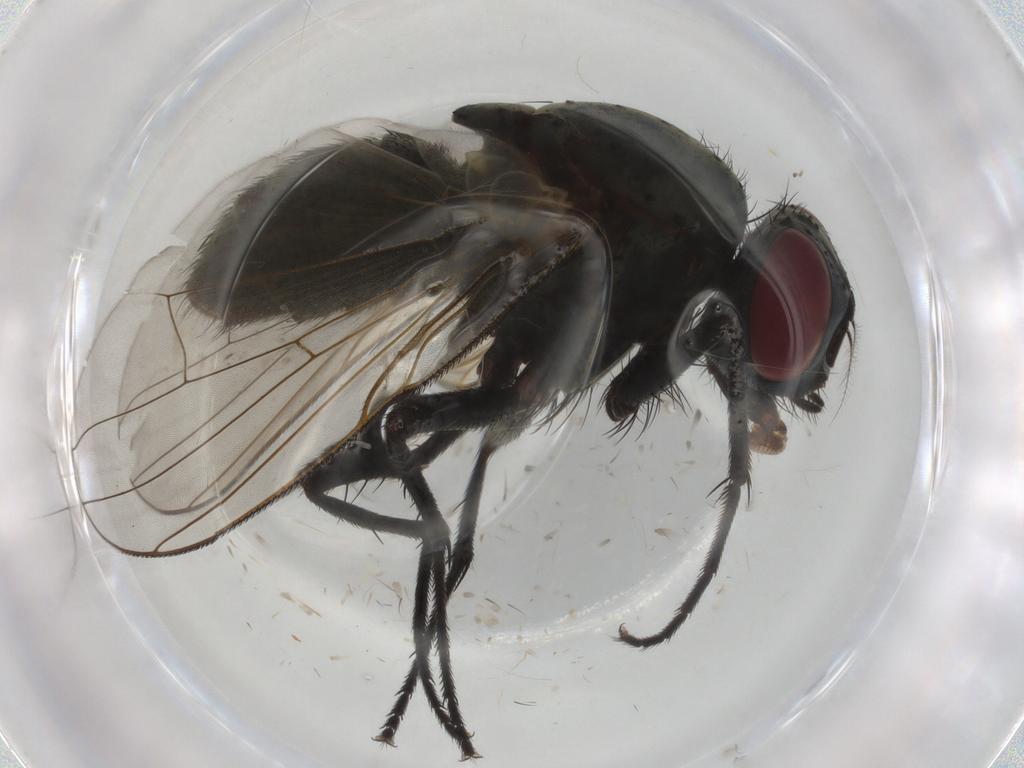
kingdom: Animalia
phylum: Arthropoda
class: Insecta
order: Diptera
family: Muscidae
